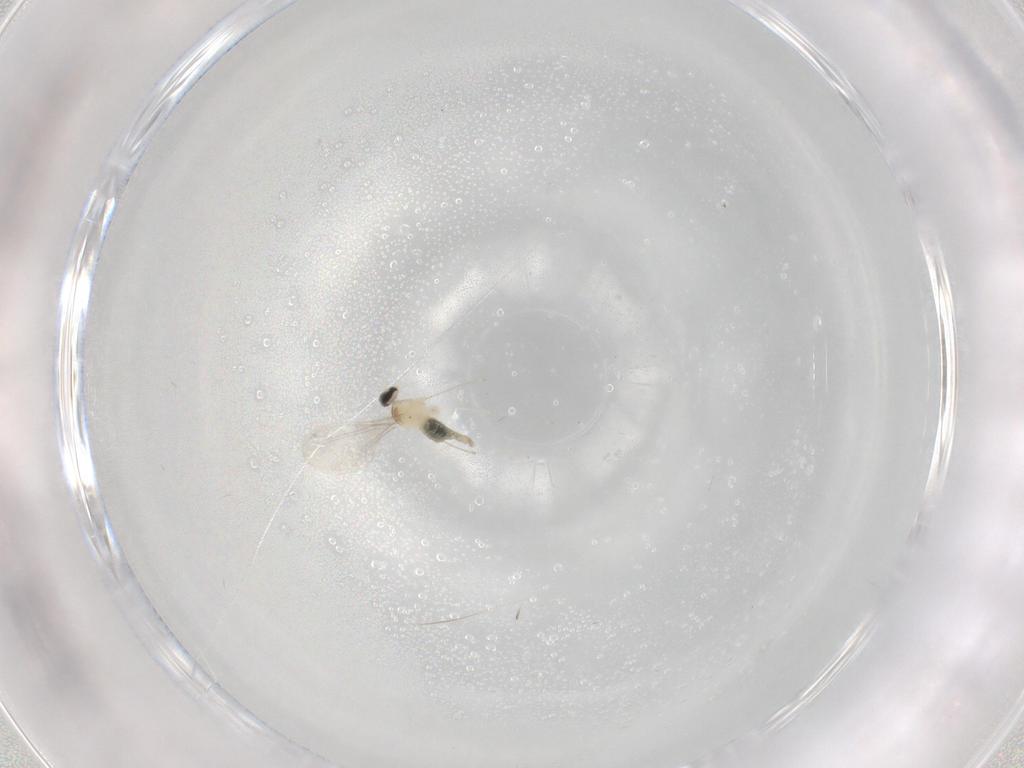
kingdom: Animalia
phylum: Arthropoda
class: Insecta
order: Diptera
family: Cecidomyiidae
